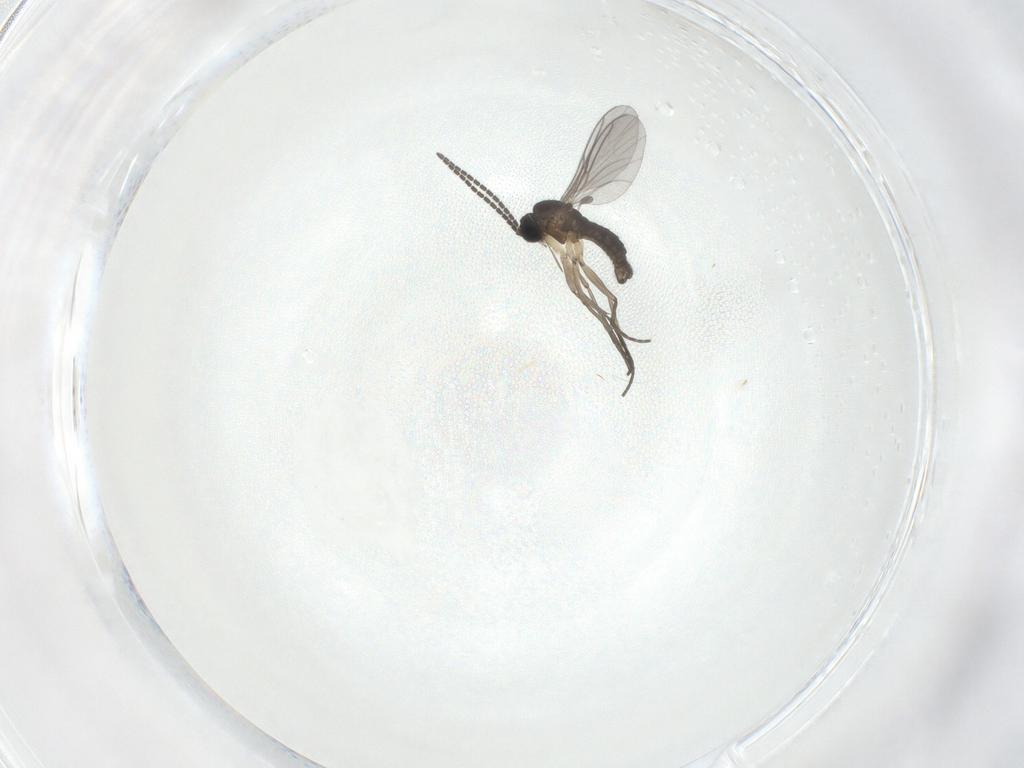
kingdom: Animalia
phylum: Arthropoda
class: Insecta
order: Diptera
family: Sciaridae
